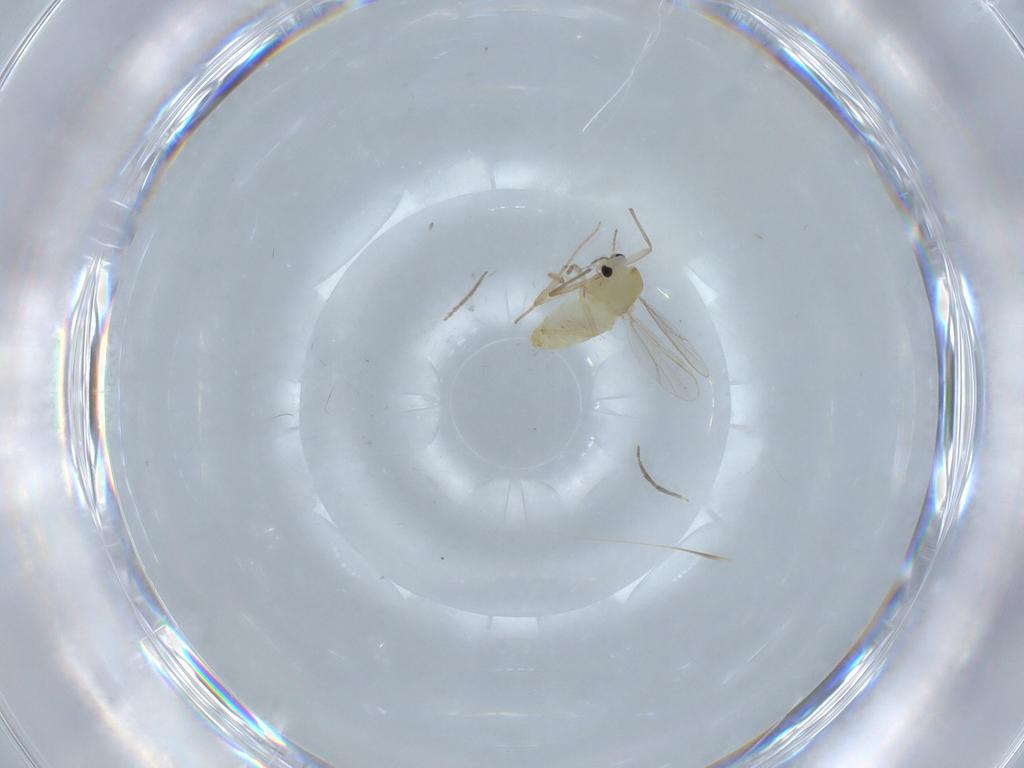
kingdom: Animalia
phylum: Arthropoda
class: Insecta
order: Diptera
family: Chironomidae
